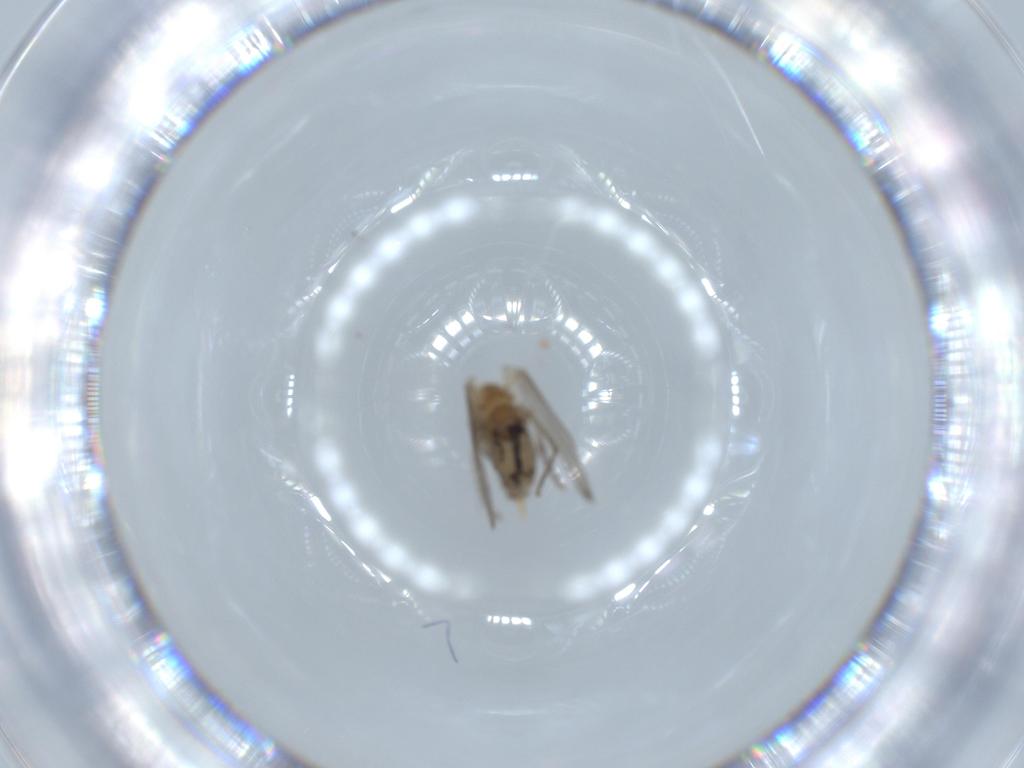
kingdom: Animalia
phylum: Arthropoda
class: Insecta
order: Diptera
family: Psychodidae
